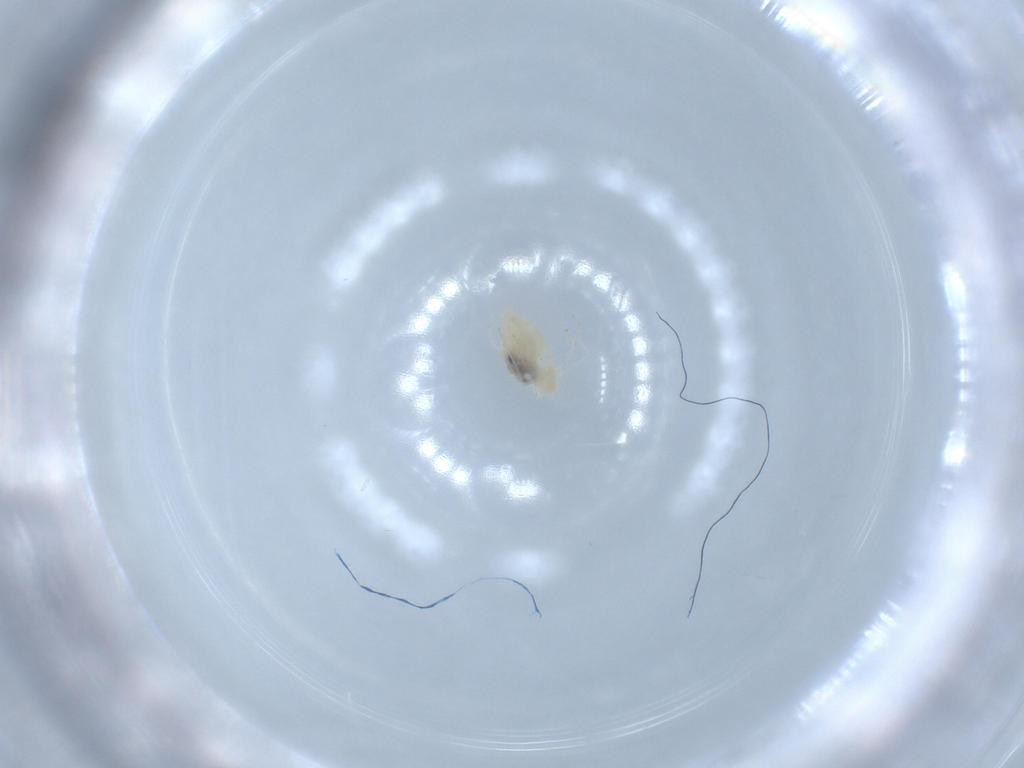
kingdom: Animalia
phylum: Arthropoda
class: Insecta
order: Diptera
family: Cecidomyiidae
